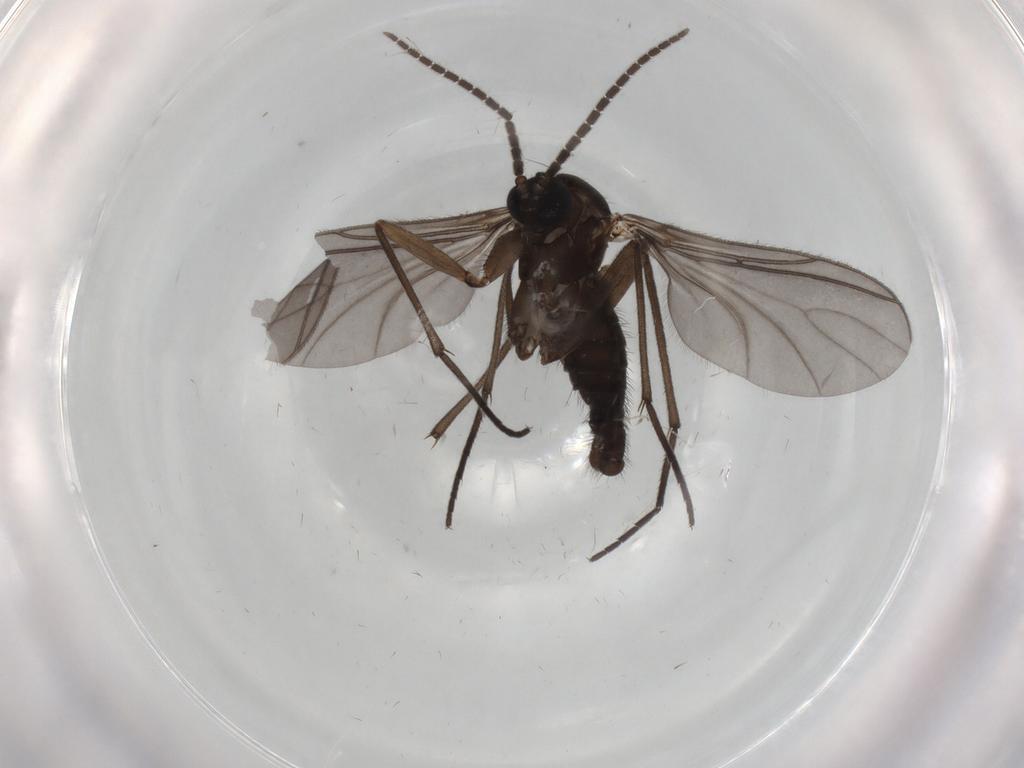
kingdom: Animalia
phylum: Arthropoda
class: Insecta
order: Diptera
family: Sciaridae
